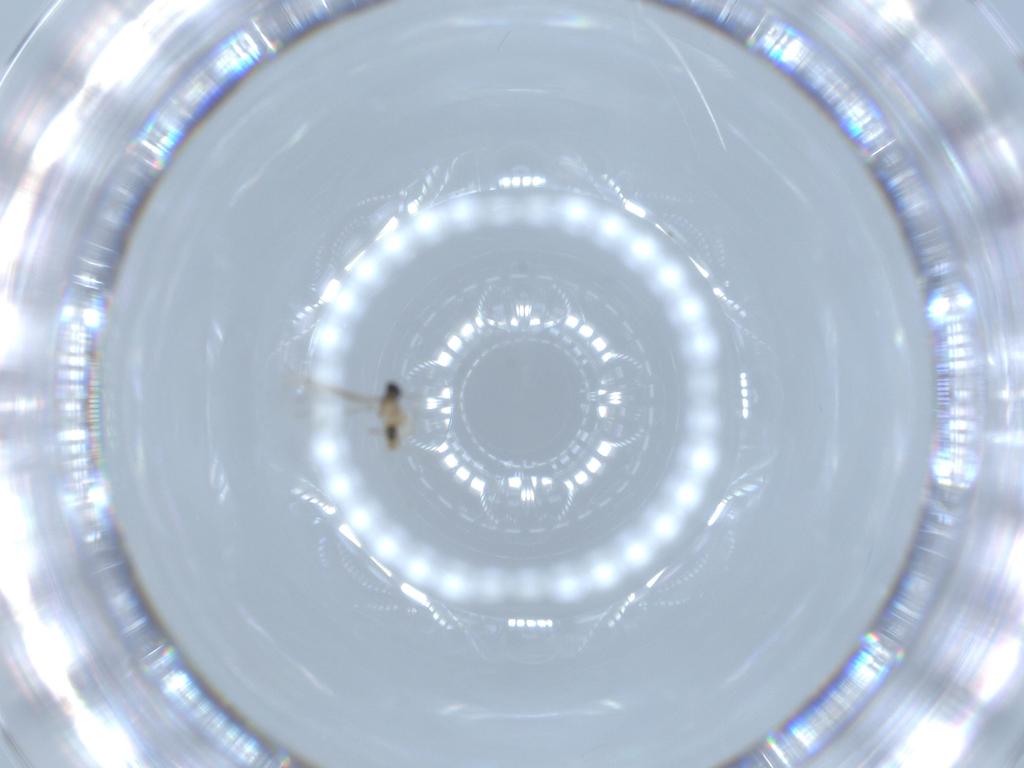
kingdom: Animalia
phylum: Arthropoda
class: Insecta
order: Diptera
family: Cecidomyiidae
